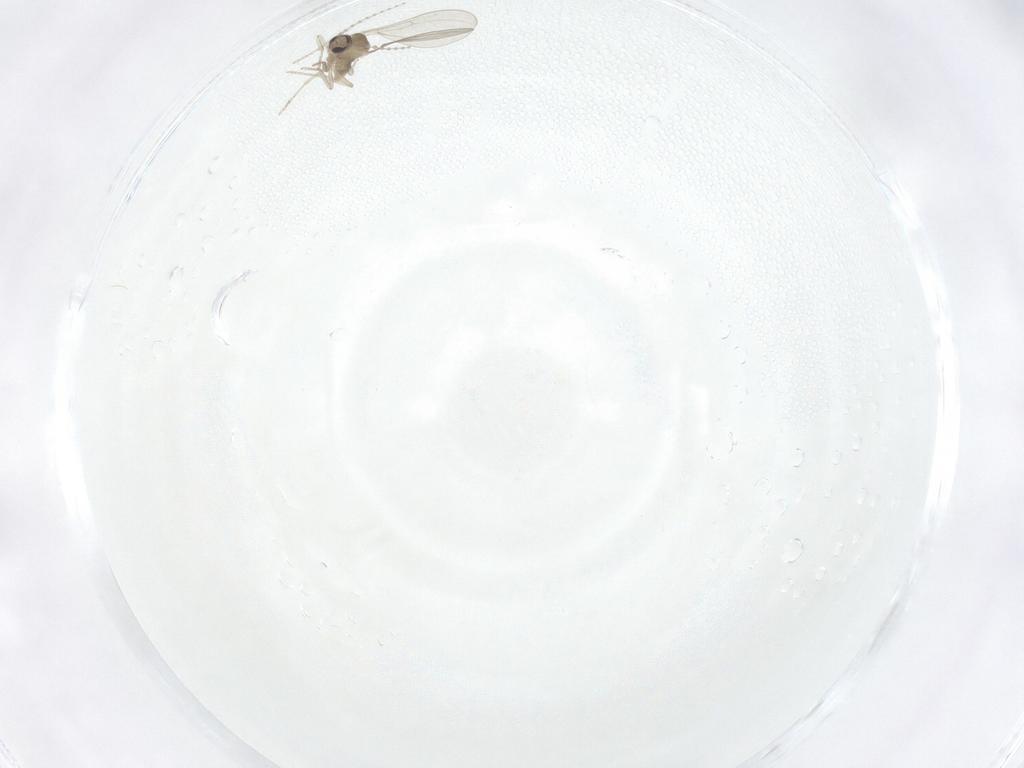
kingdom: Animalia
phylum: Arthropoda
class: Insecta
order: Diptera
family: Cecidomyiidae
